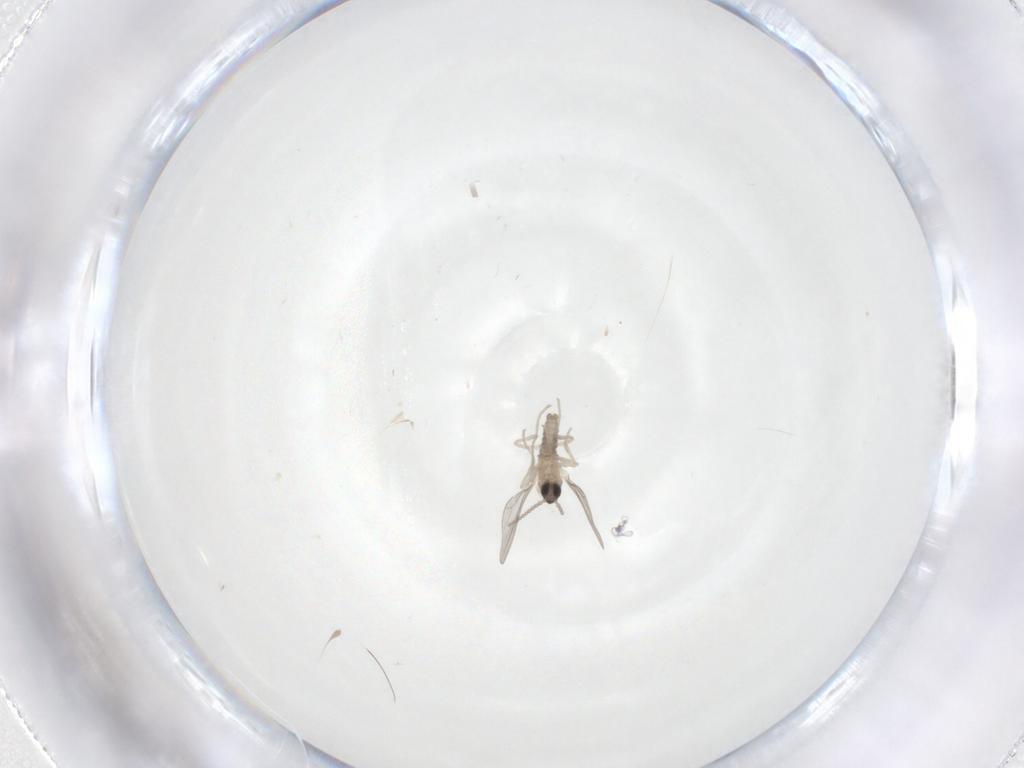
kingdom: Animalia
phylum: Arthropoda
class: Insecta
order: Diptera
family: Cecidomyiidae
